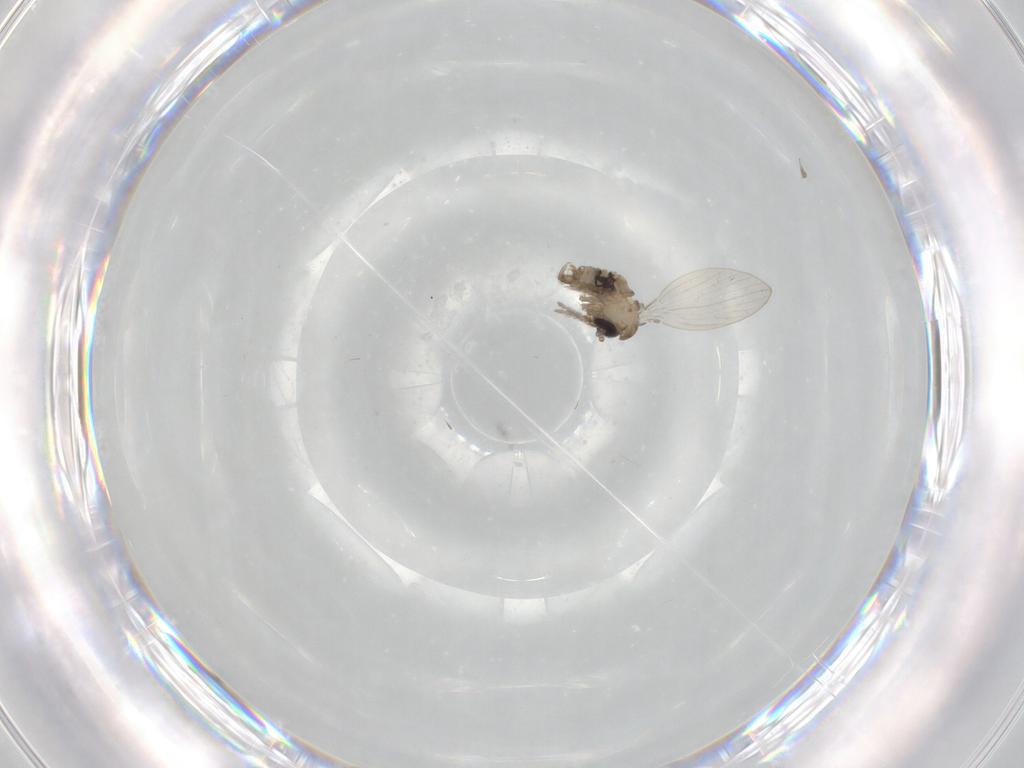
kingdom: Animalia
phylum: Arthropoda
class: Insecta
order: Diptera
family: Psychodidae
